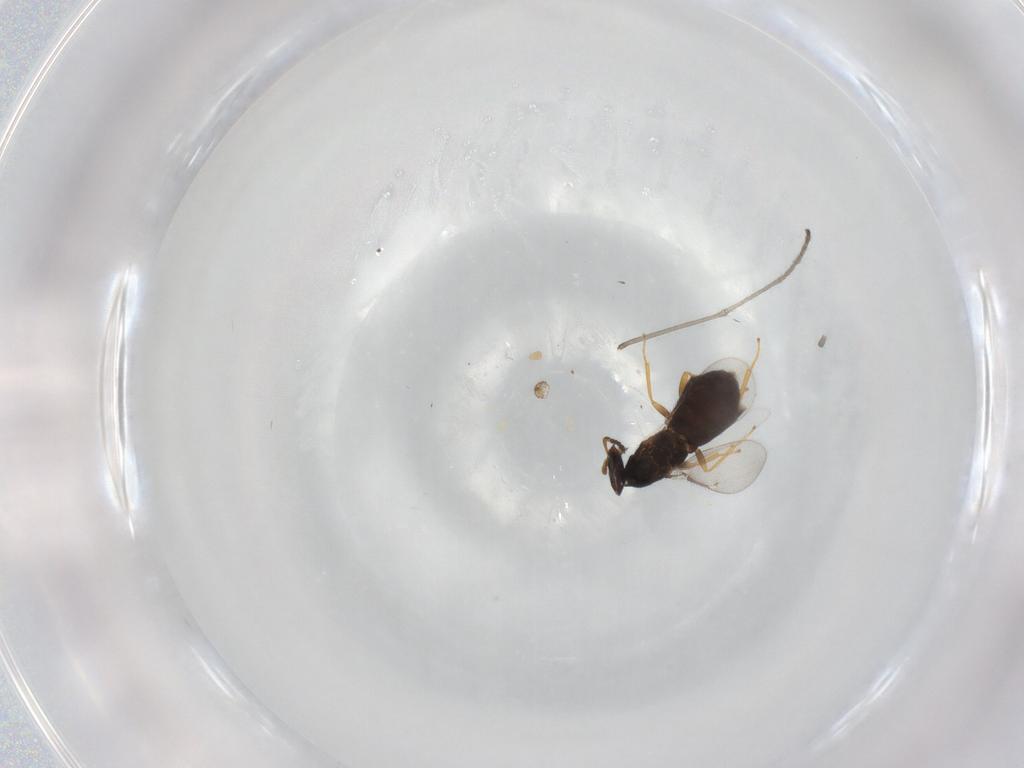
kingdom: Animalia
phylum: Arthropoda
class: Insecta
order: Hymenoptera
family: Eulophidae
